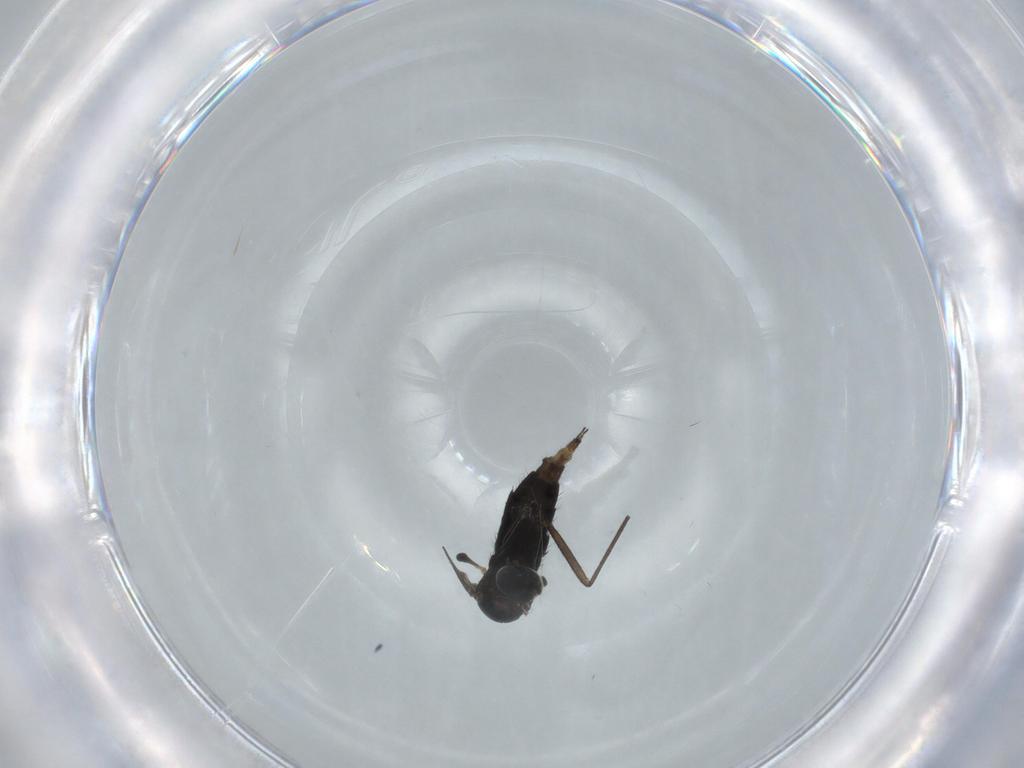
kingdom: Animalia
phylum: Arthropoda
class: Insecta
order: Diptera
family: Sciaridae
